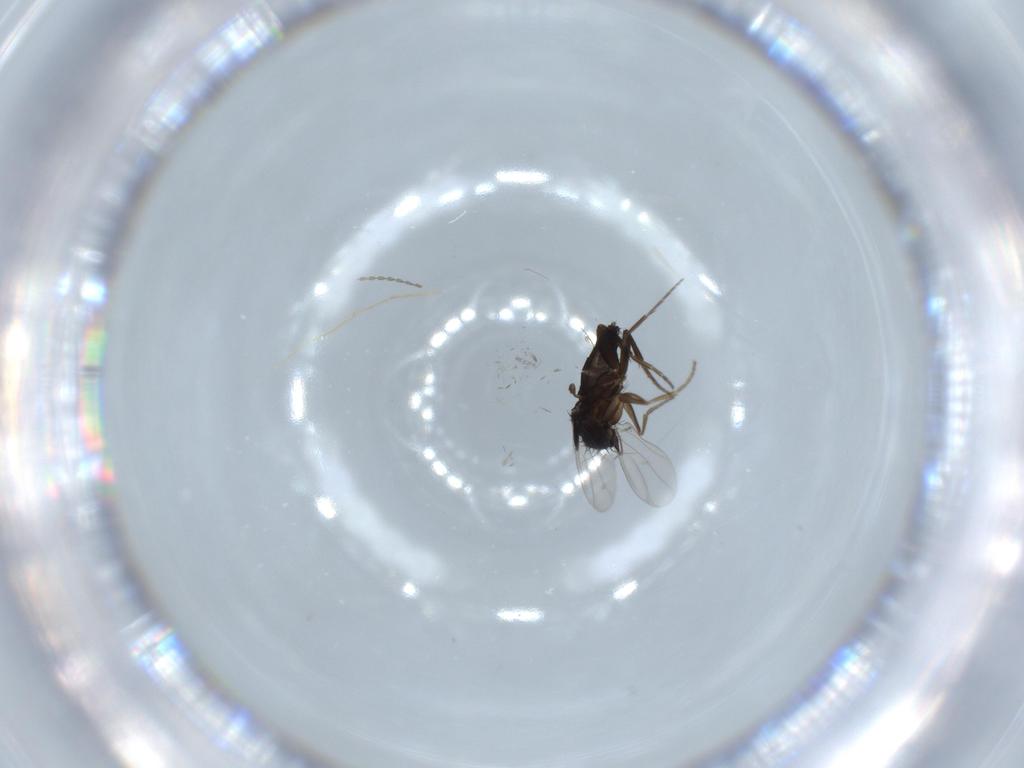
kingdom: Animalia
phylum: Arthropoda
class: Insecta
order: Diptera
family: Cecidomyiidae
